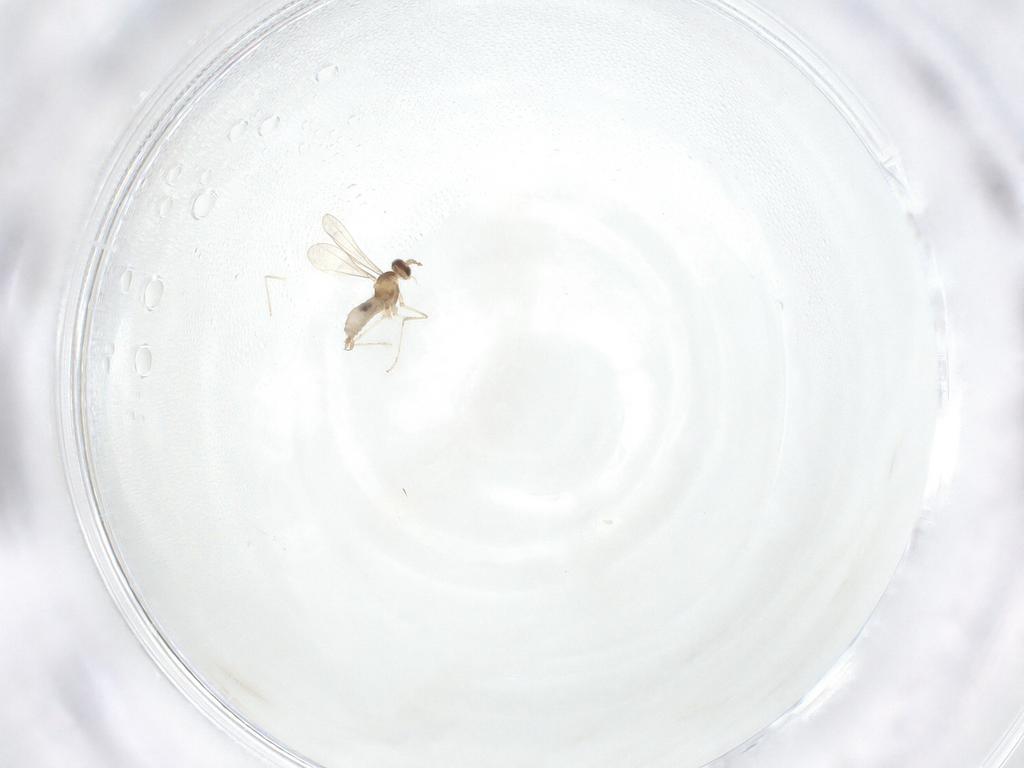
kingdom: Animalia
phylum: Arthropoda
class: Insecta
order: Diptera
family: Cecidomyiidae
